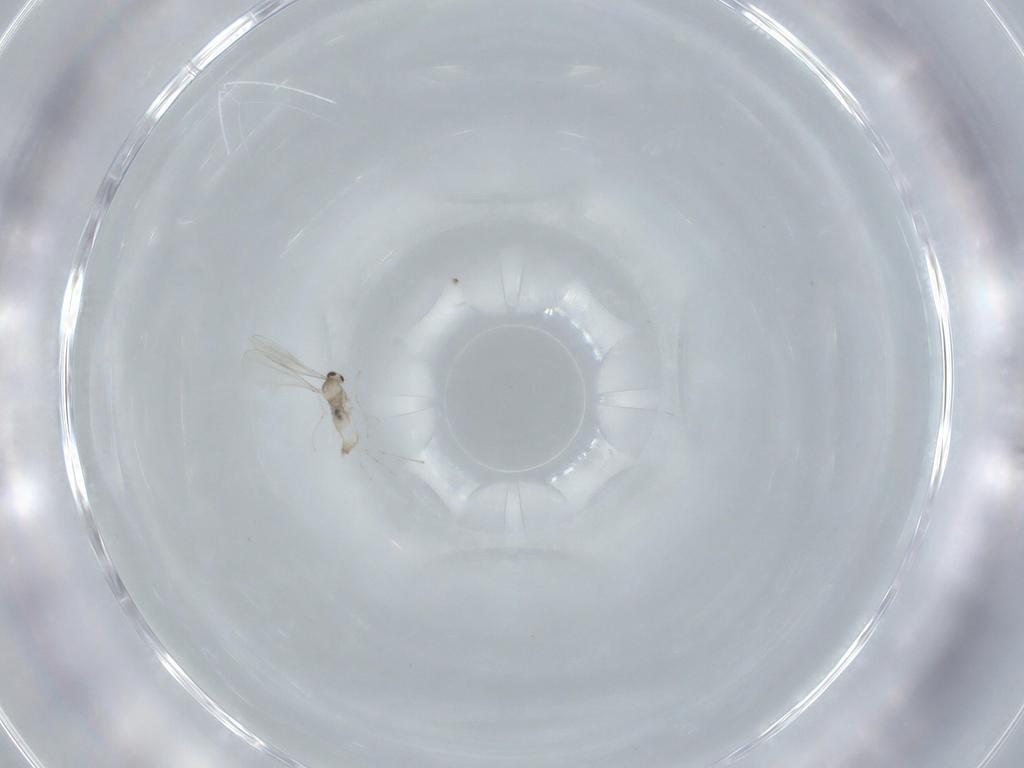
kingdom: Animalia
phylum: Arthropoda
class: Insecta
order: Diptera
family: Cecidomyiidae
